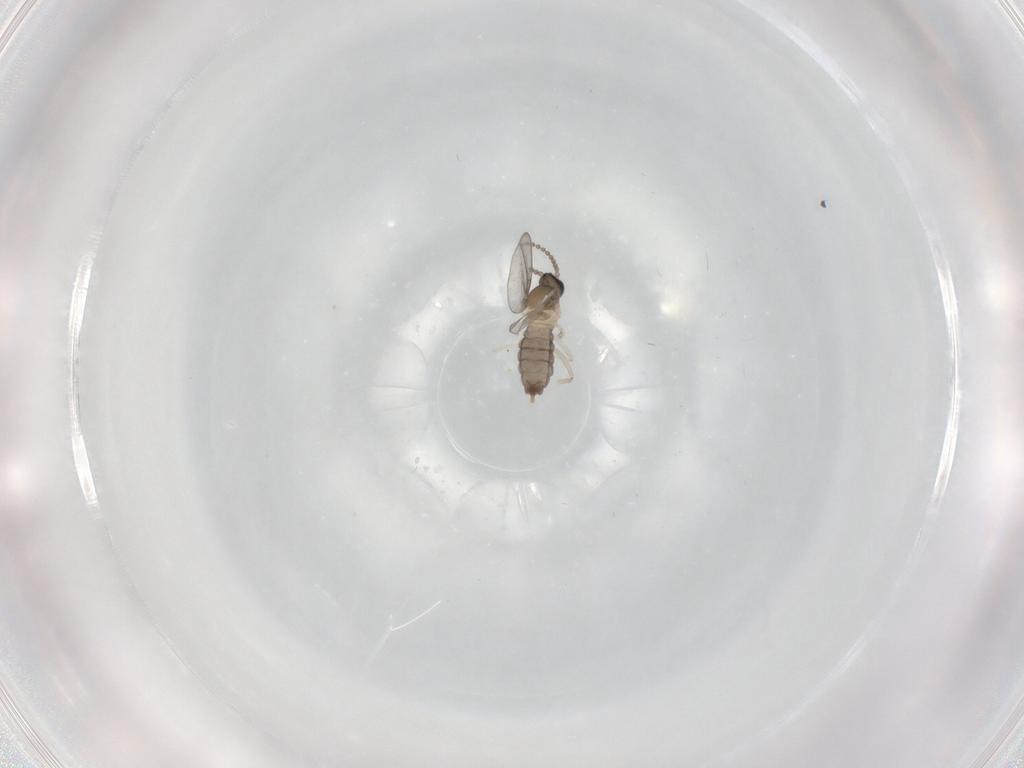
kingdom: Animalia
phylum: Arthropoda
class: Insecta
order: Diptera
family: Cecidomyiidae
